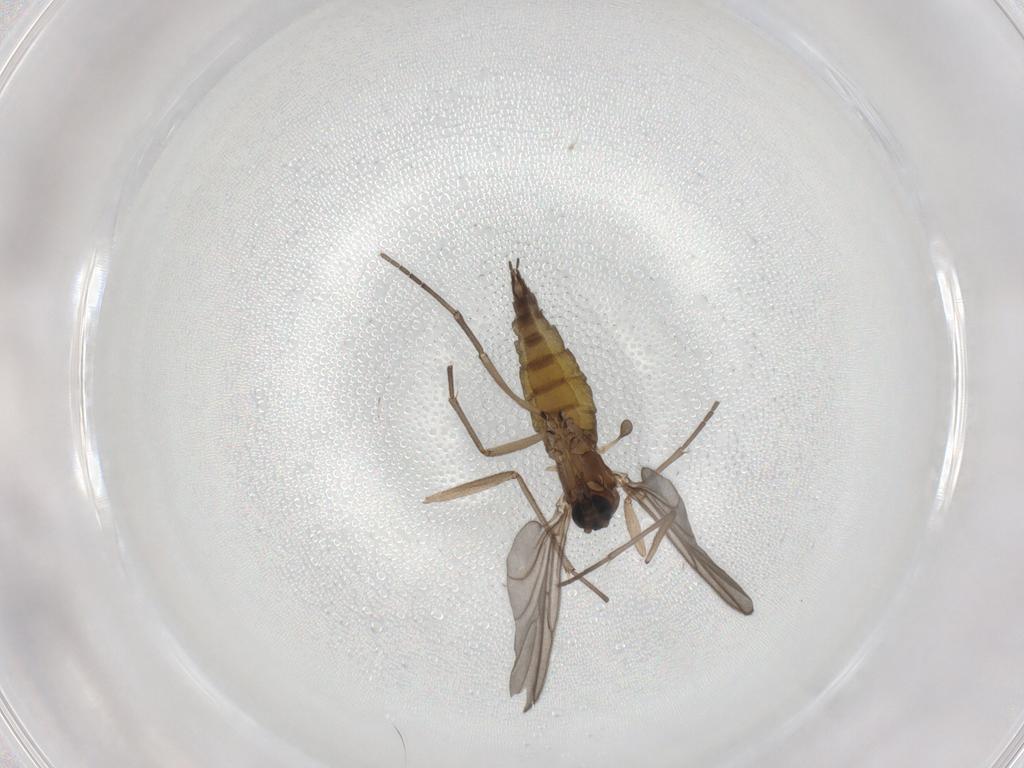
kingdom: Animalia
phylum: Arthropoda
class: Insecta
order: Diptera
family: Sciaridae
